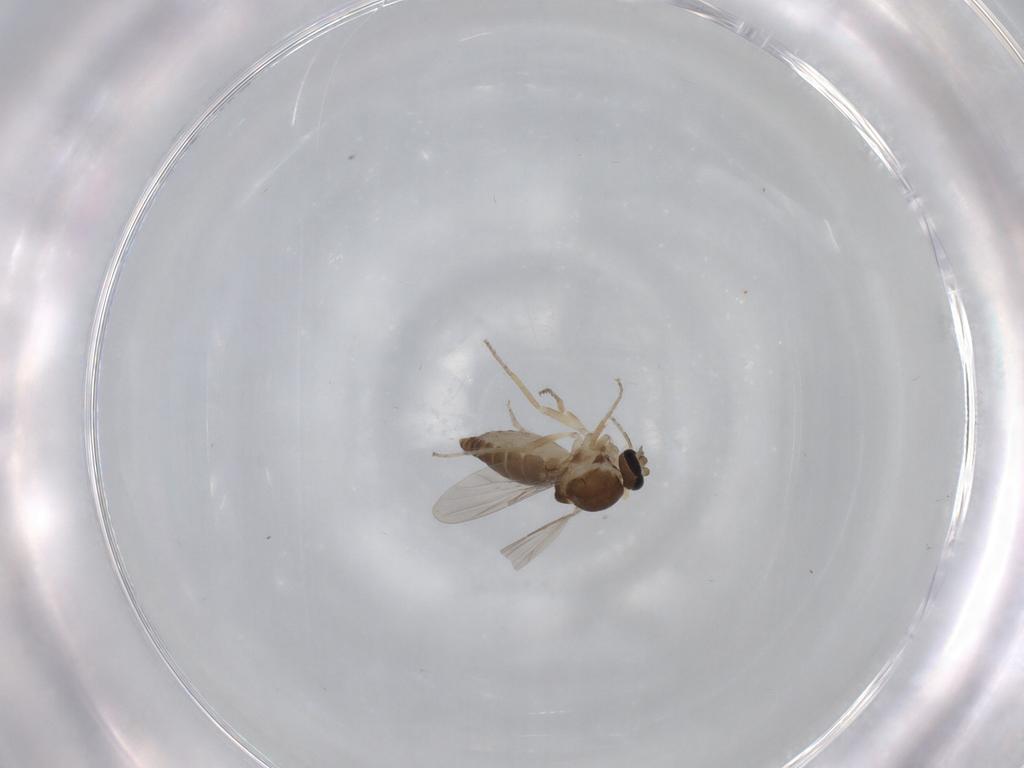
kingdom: Animalia
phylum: Arthropoda
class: Insecta
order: Diptera
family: Ceratopogonidae
